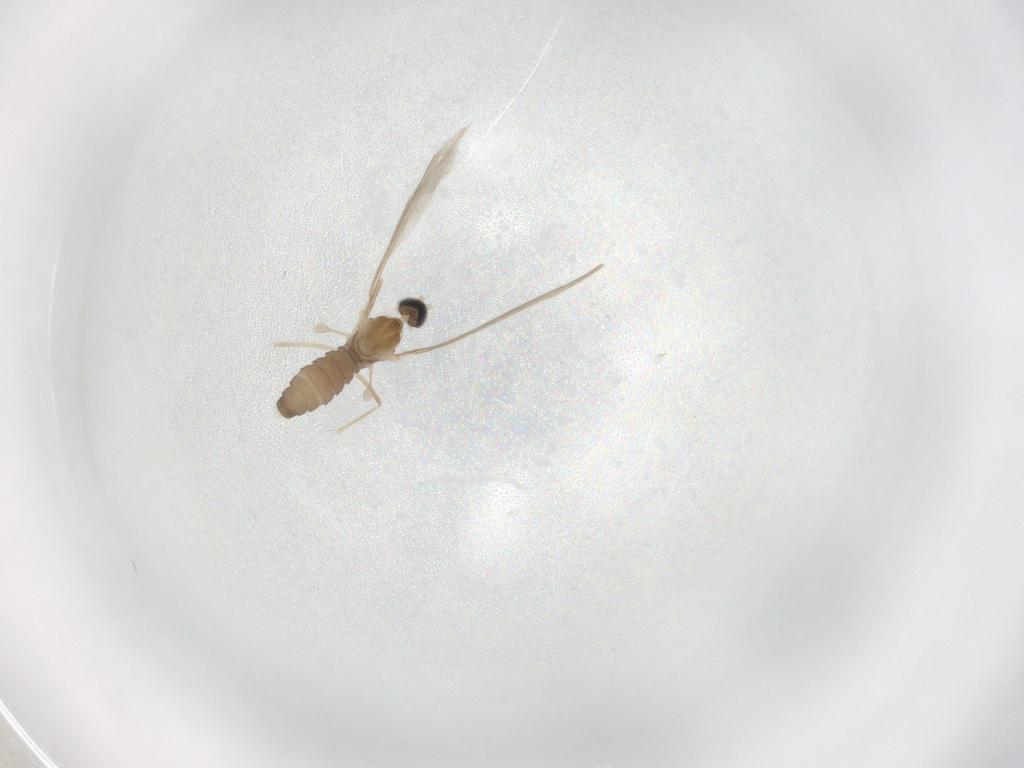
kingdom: Animalia
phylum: Arthropoda
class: Insecta
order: Diptera
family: Cecidomyiidae
